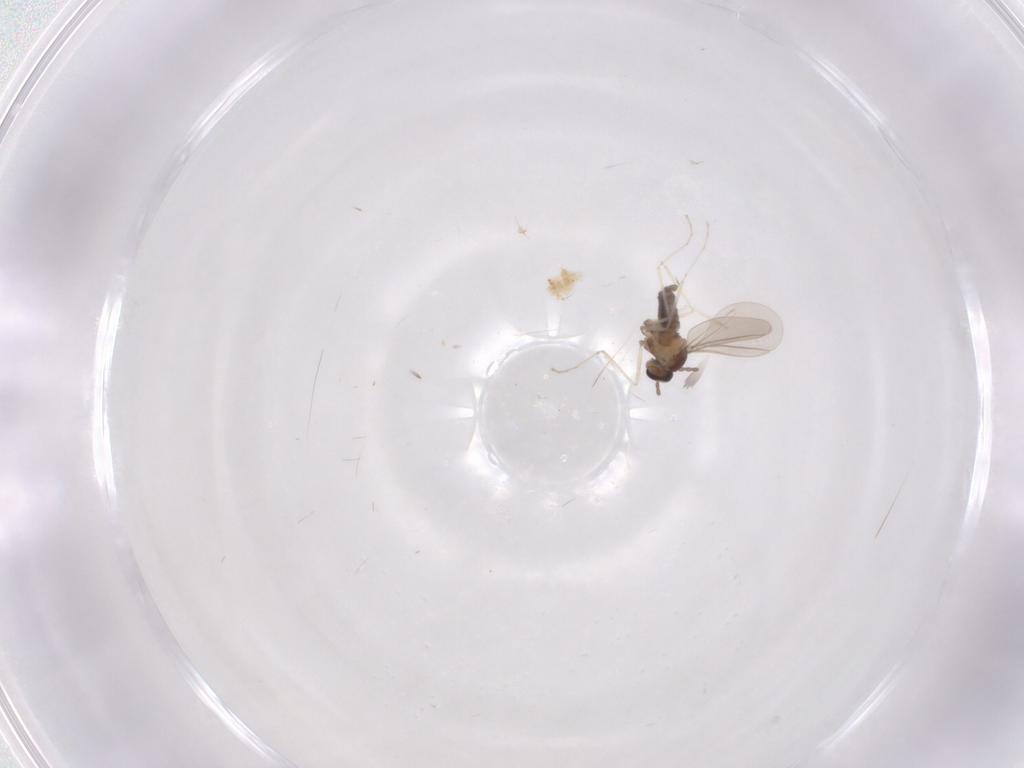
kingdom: Animalia
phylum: Arthropoda
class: Insecta
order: Diptera
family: Cecidomyiidae
